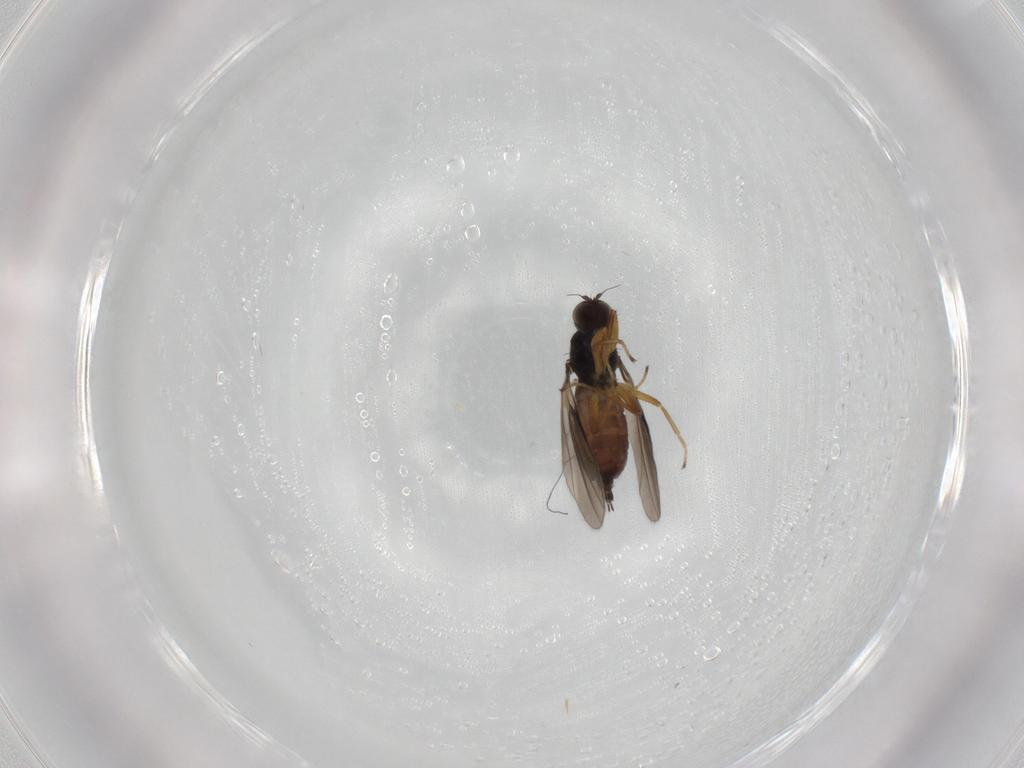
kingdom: Animalia
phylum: Arthropoda
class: Insecta
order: Diptera
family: Hybotidae
